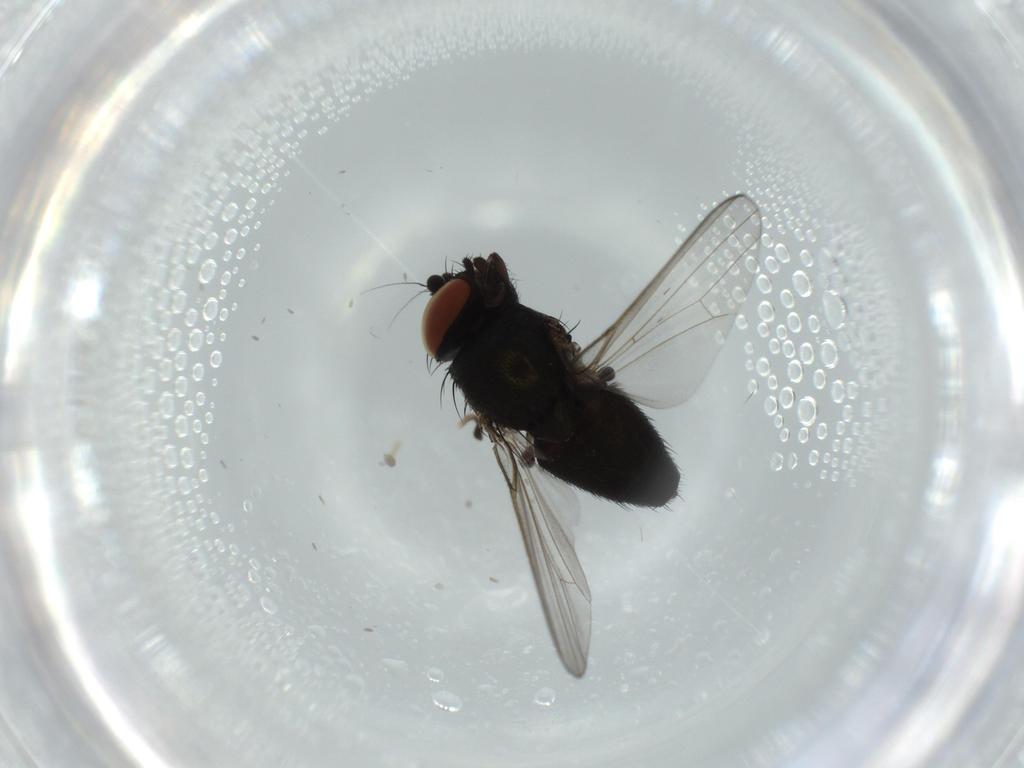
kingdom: Animalia
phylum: Arthropoda
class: Insecta
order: Diptera
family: Milichiidae
